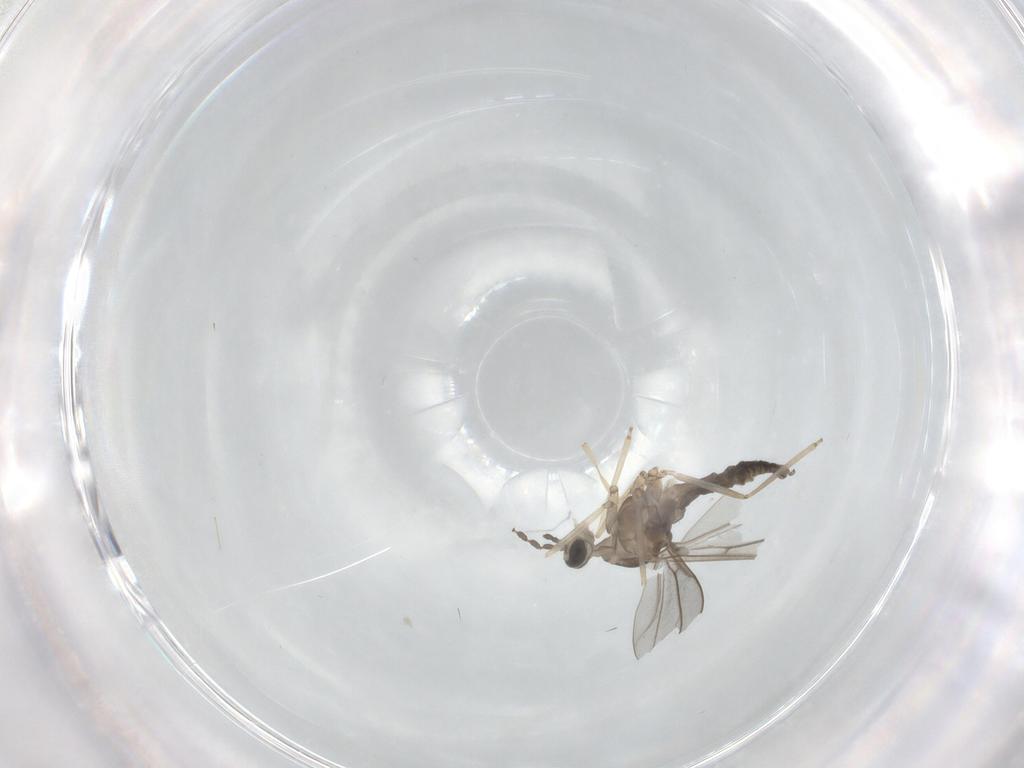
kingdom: Animalia
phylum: Arthropoda
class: Insecta
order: Diptera
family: Cecidomyiidae
